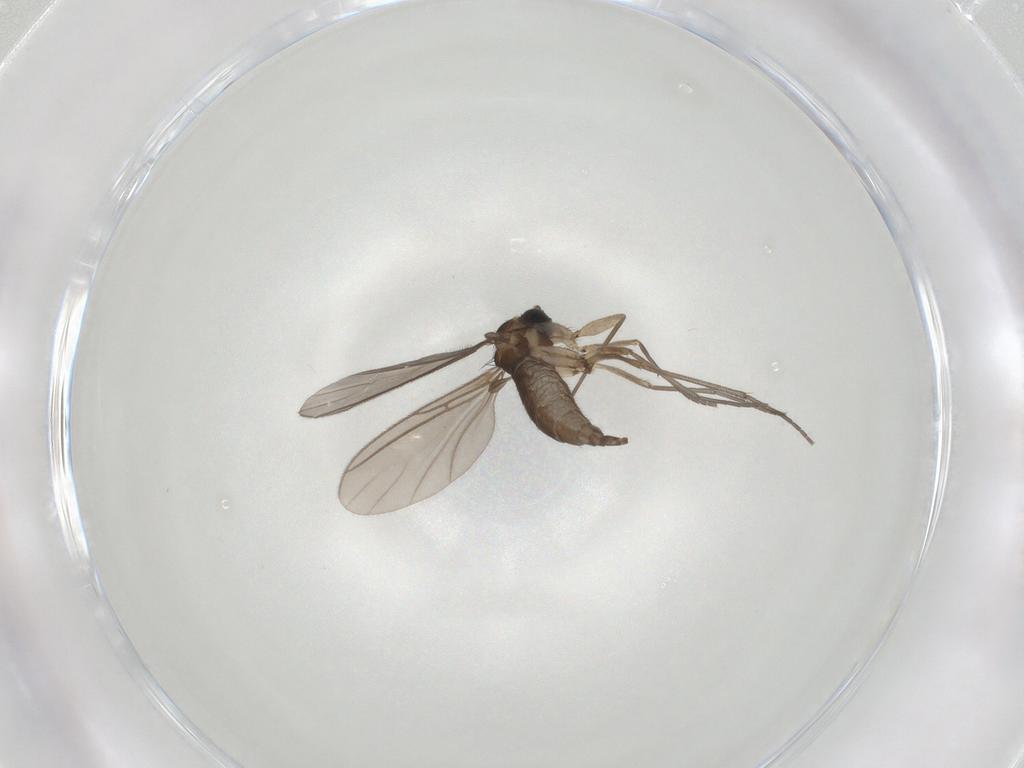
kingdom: Animalia
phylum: Arthropoda
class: Insecta
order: Diptera
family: Sciaridae
